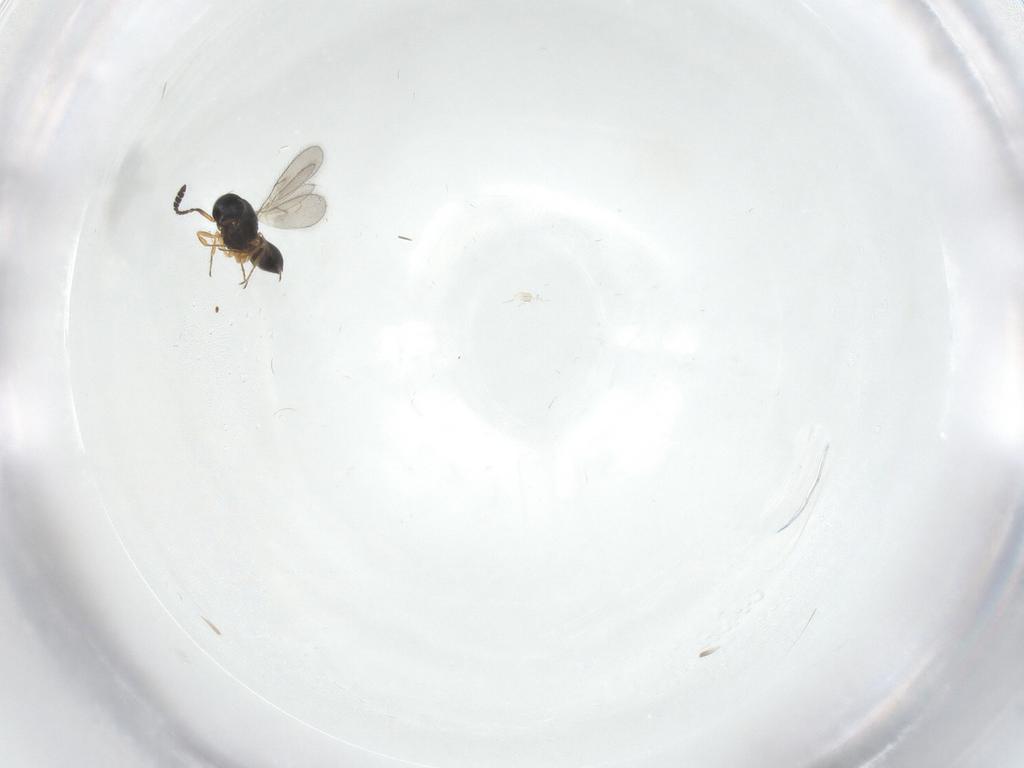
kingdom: Animalia
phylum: Arthropoda
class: Insecta
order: Hymenoptera
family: Scelionidae
